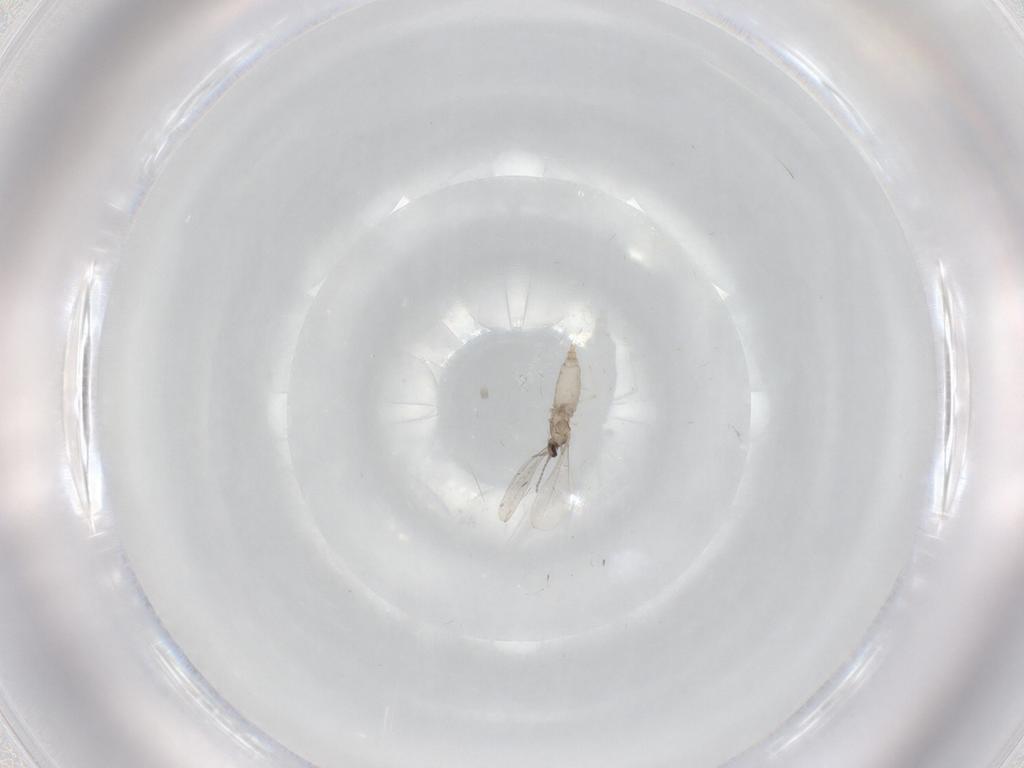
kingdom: Animalia
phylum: Arthropoda
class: Insecta
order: Diptera
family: Cecidomyiidae
